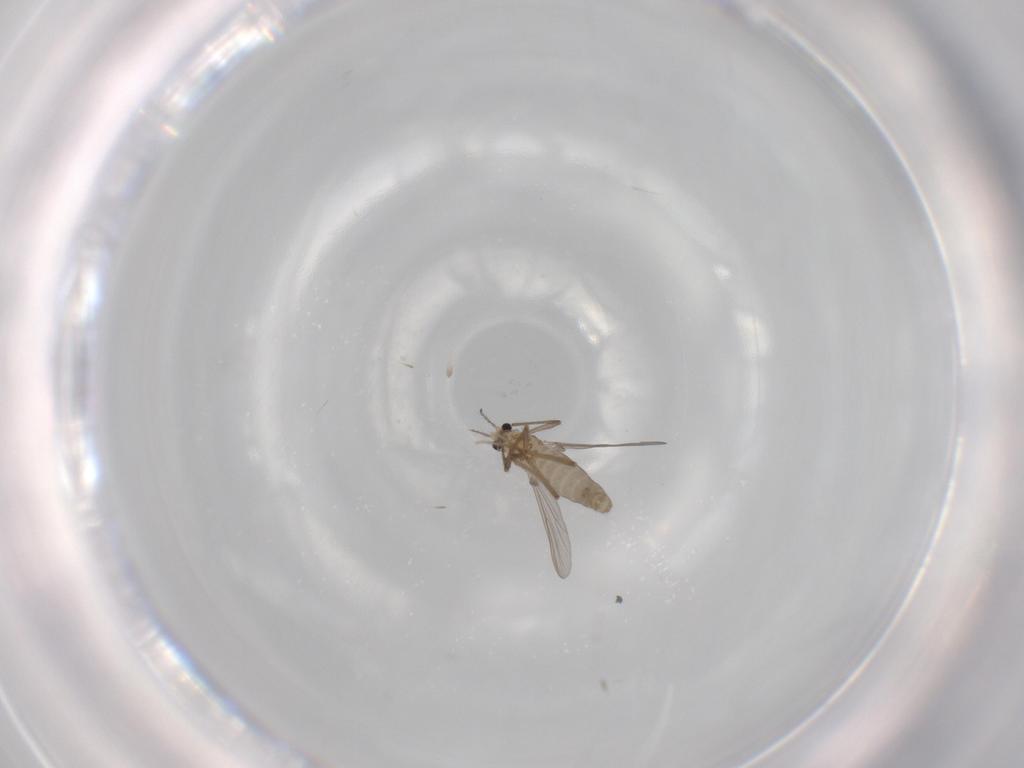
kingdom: Animalia
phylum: Arthropoda
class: Insecta
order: Diptera
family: Chironomidae
